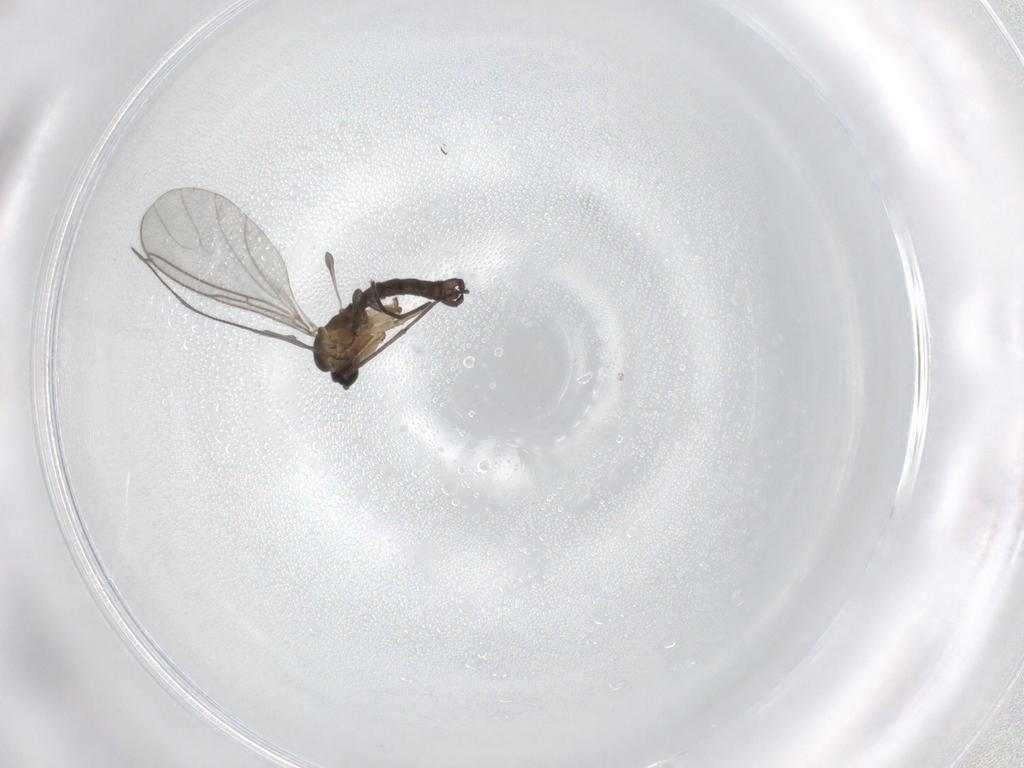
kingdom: Animalia
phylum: Arthropoda
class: Insecta
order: Diptera
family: Sciaridae
